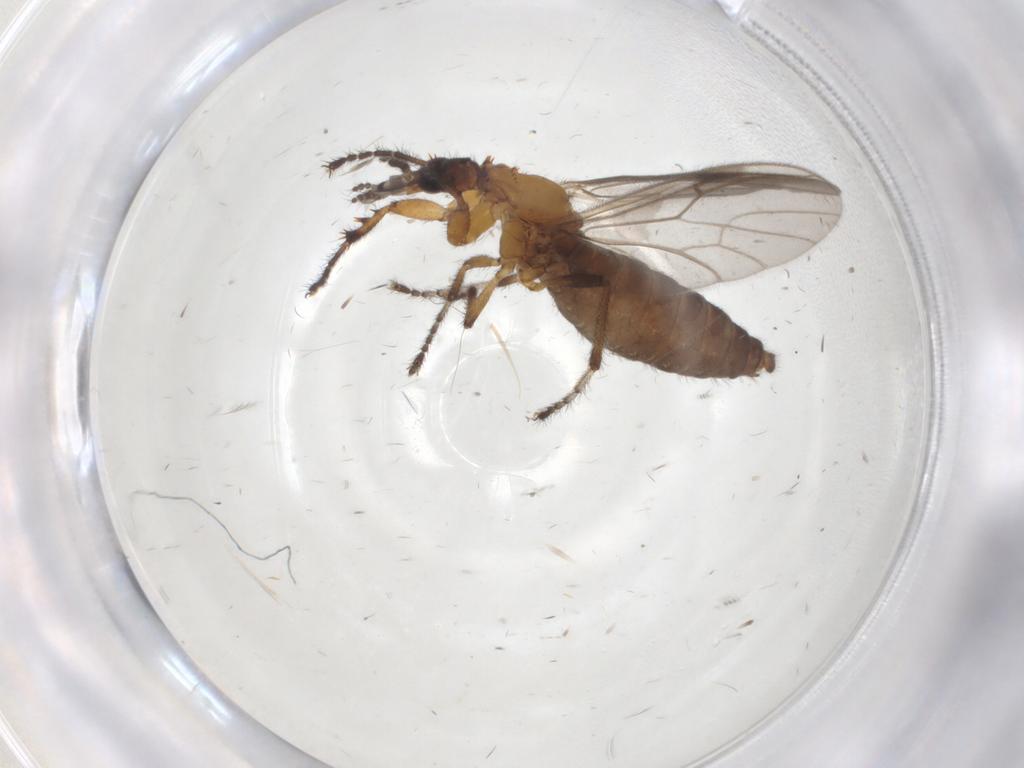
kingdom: Animalia
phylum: Arthropoda
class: Insecta
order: Diptera
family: Bibionidae
